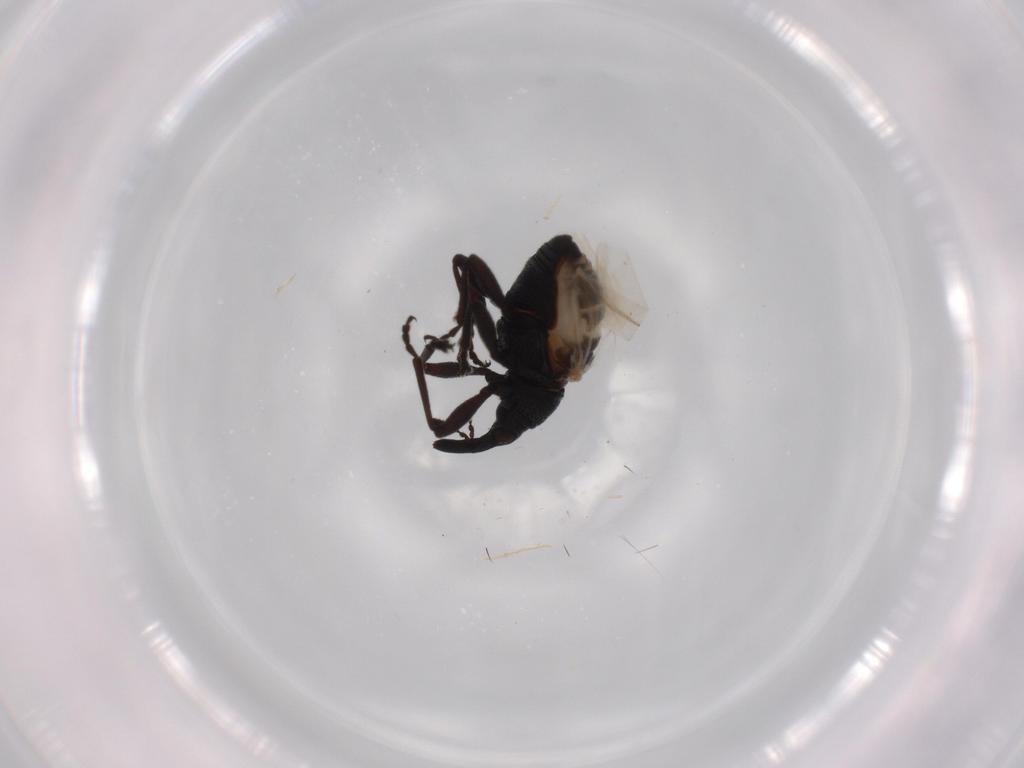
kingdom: Animalia
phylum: Arthropoda
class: Insecta
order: Coleoptera
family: Brentidae
